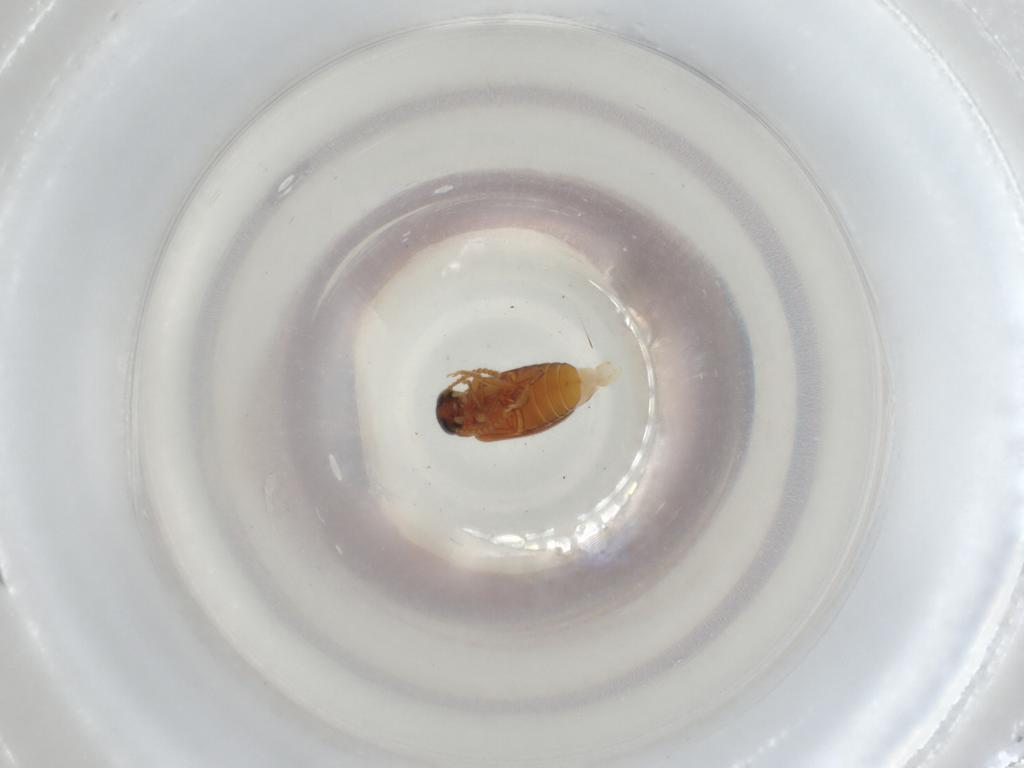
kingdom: Animalia
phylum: Arthropoda
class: Insecta
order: Coleoptera
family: Aderidae
